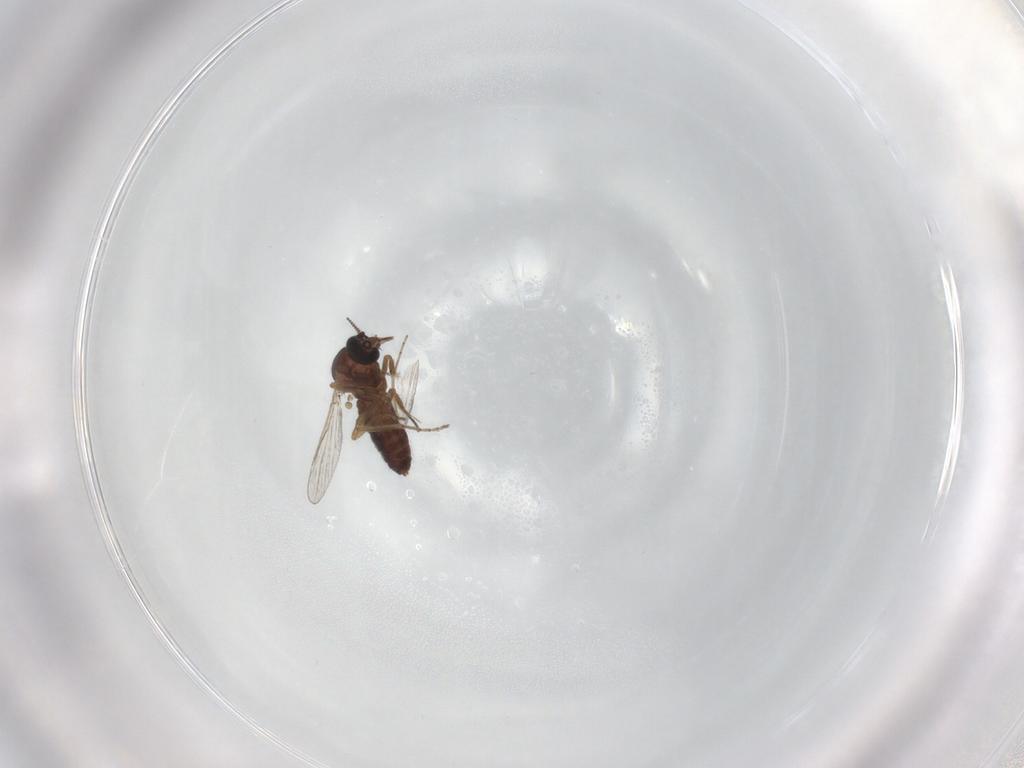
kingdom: Animalia
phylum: Arthropoda
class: Insecta
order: Diptera
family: Ceratopogonidae
